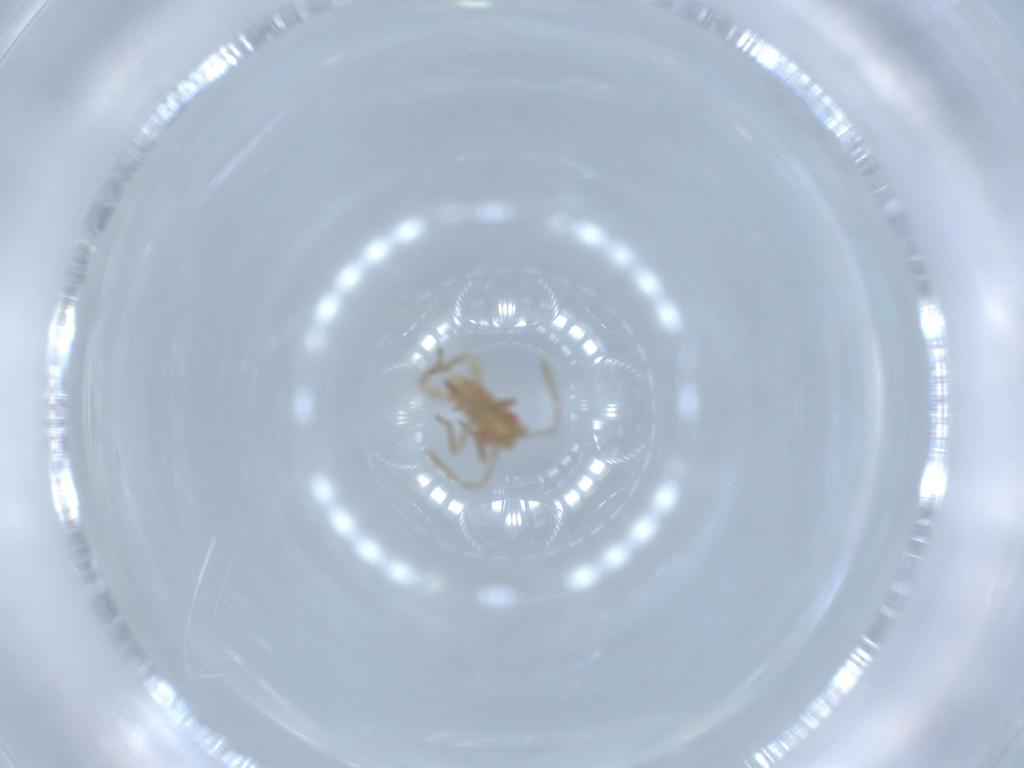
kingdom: Animalia
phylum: Arthropoda
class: Insecta
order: Hemiptera
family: Miridae
